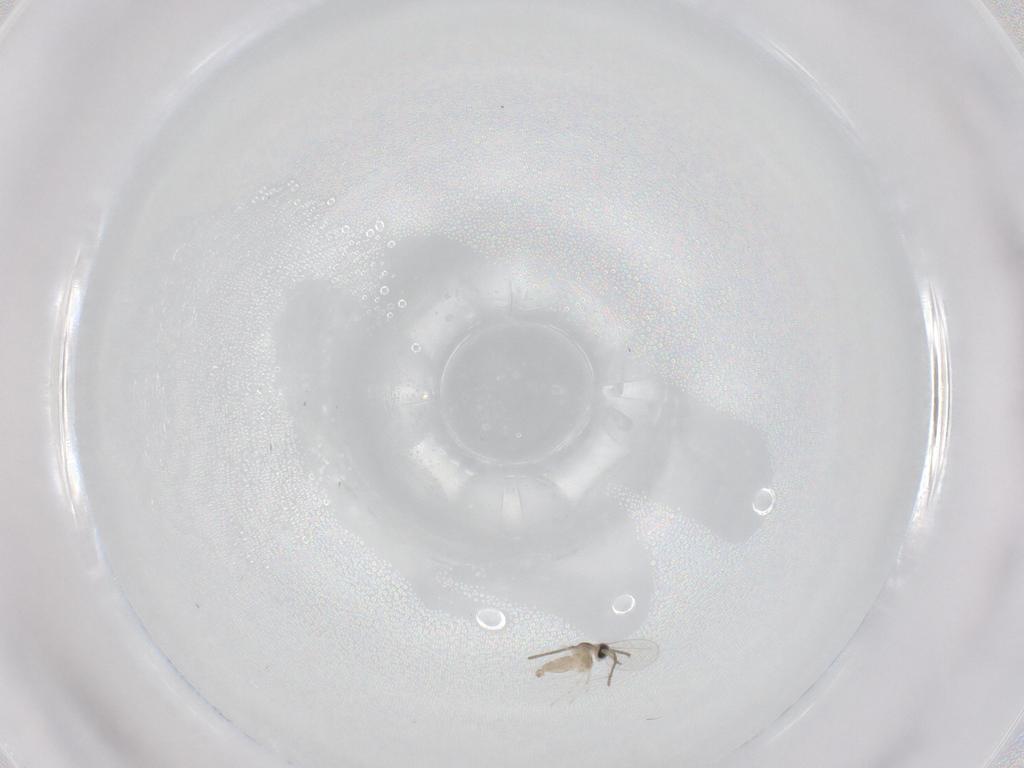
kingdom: Animalia
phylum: Arthropoda
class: Insecta
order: Diptera
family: Cecidomyiidae
